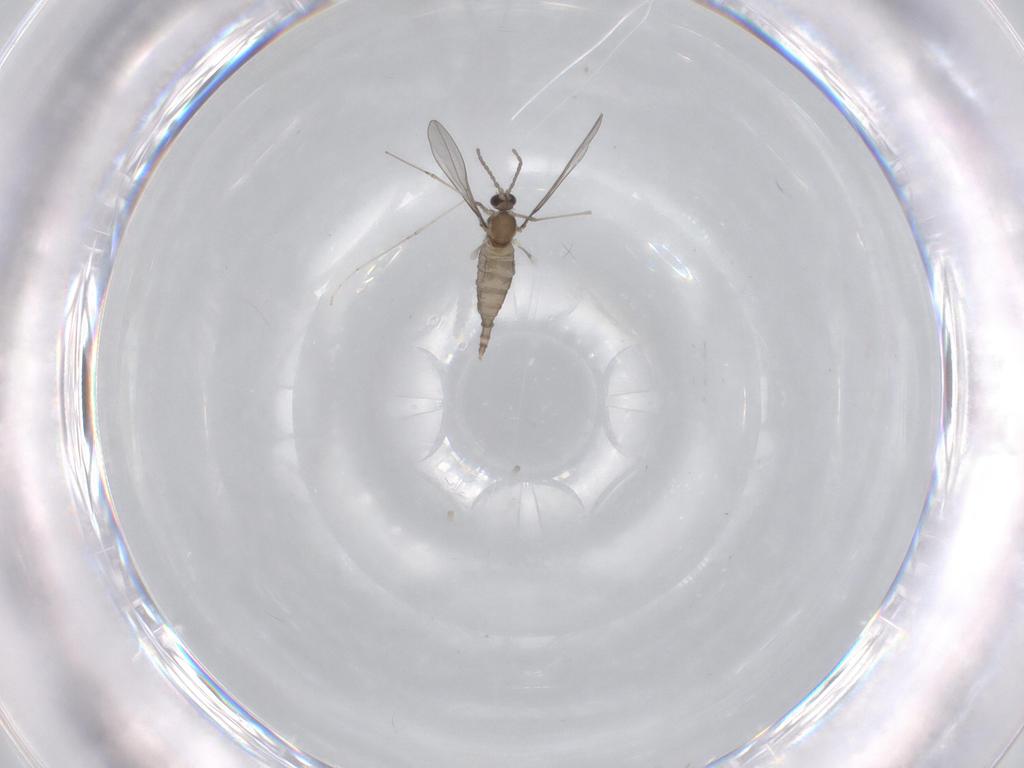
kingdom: Animalia
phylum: Arthropoda
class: Insecta
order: Diptera
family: Cecidomyiidae
